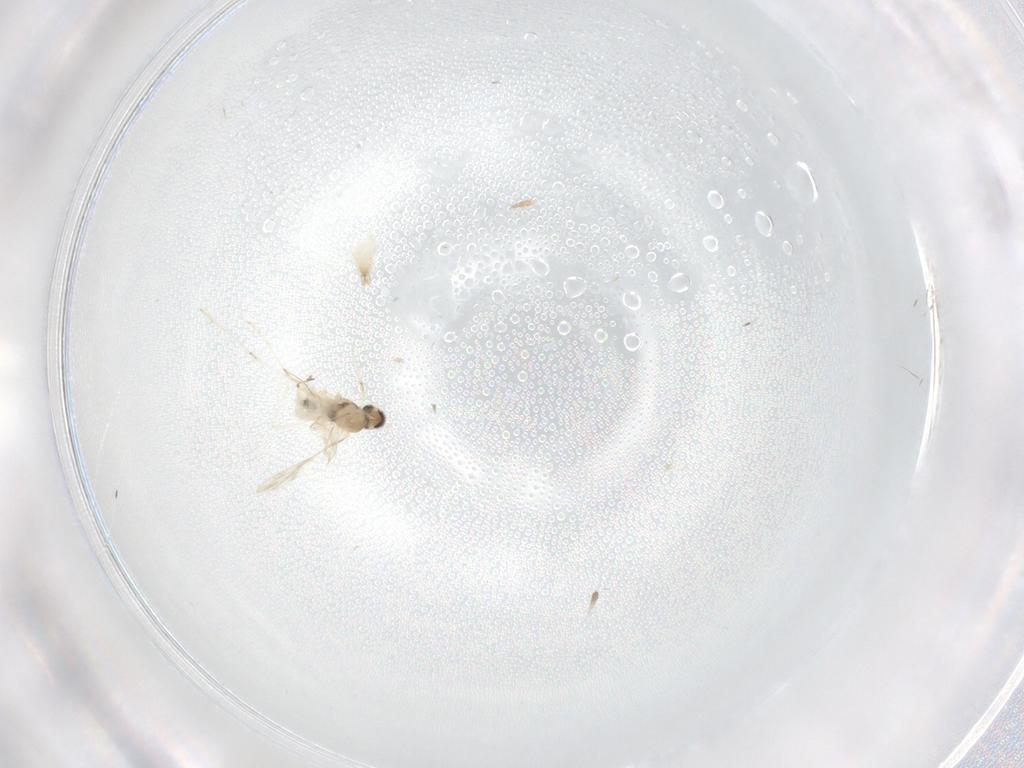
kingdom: Animalia
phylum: Arthropoda
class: Insecta
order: Diptera
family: Cecidomyiidae
